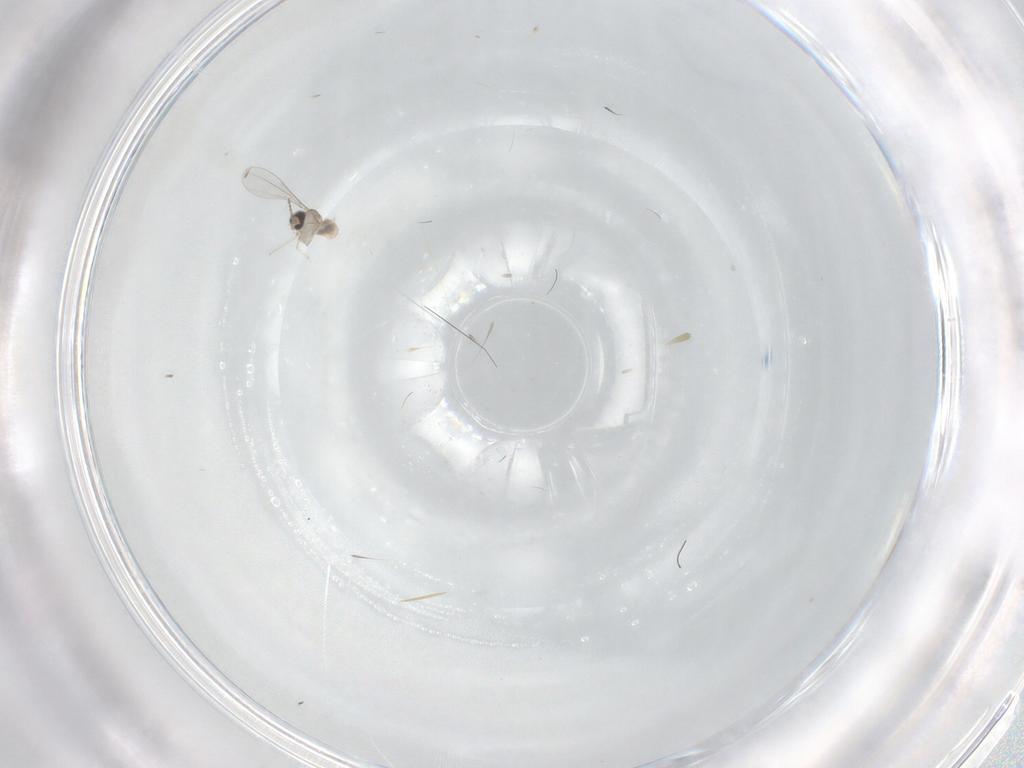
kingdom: Animalia
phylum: Arthropoda
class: Insecta
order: Diptera
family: Cecidomyiidae
